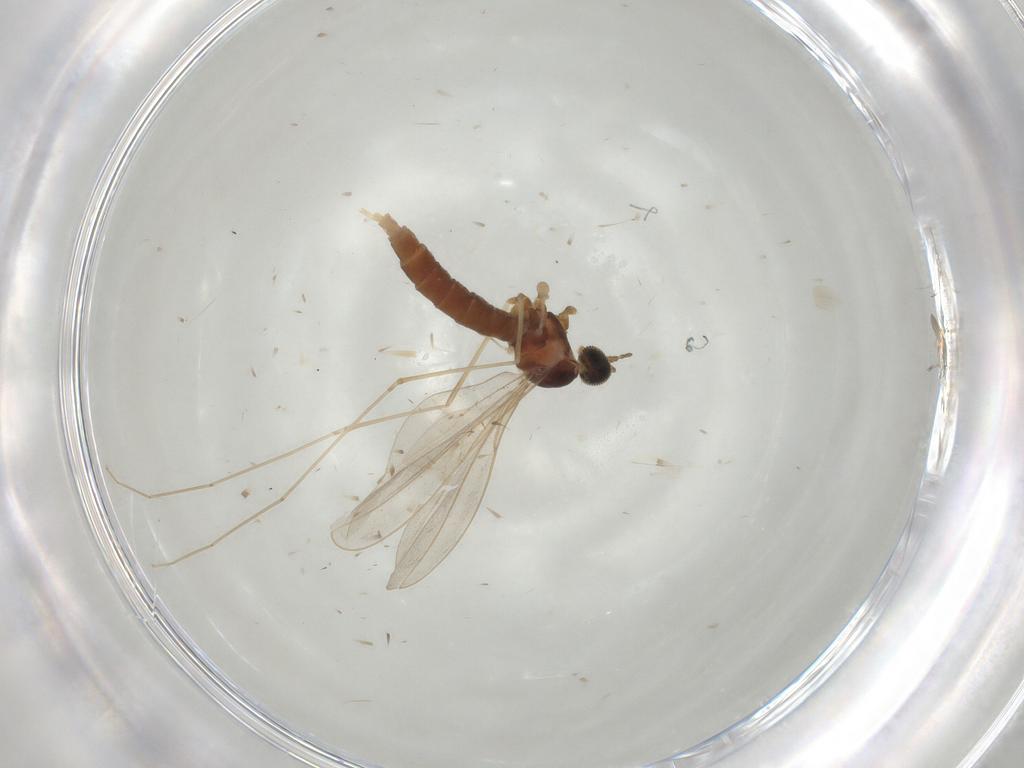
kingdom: Animalia
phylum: Arthropoda
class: Insecta
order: Diptera
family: Cecidomyiidae
